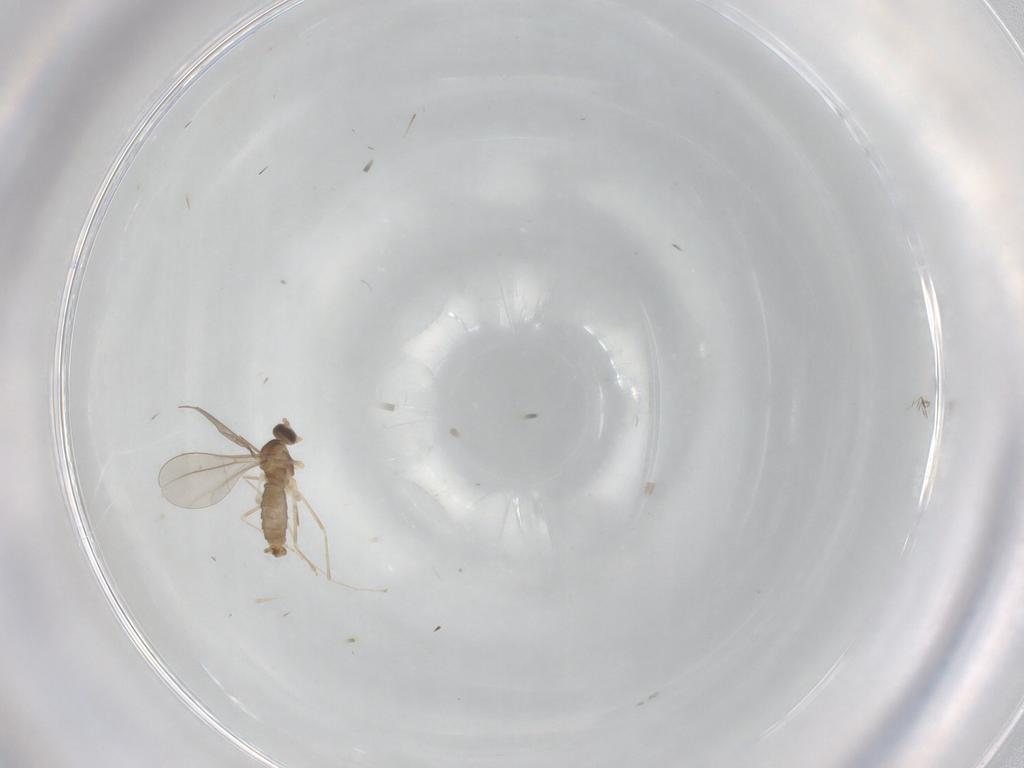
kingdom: Animalia
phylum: Arthropoda
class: Insecta
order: Diptera
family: Cecidomyiidae
